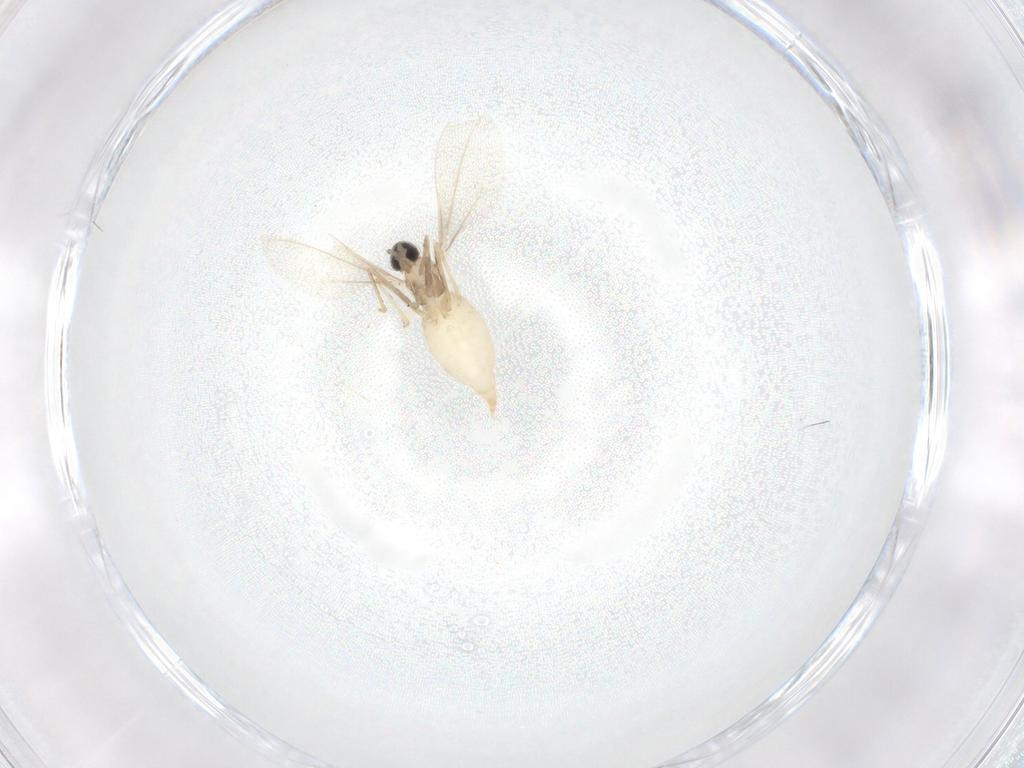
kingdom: Animalia
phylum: Arthropoda
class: Insecta
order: Diptera
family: Cecidomyiidae
